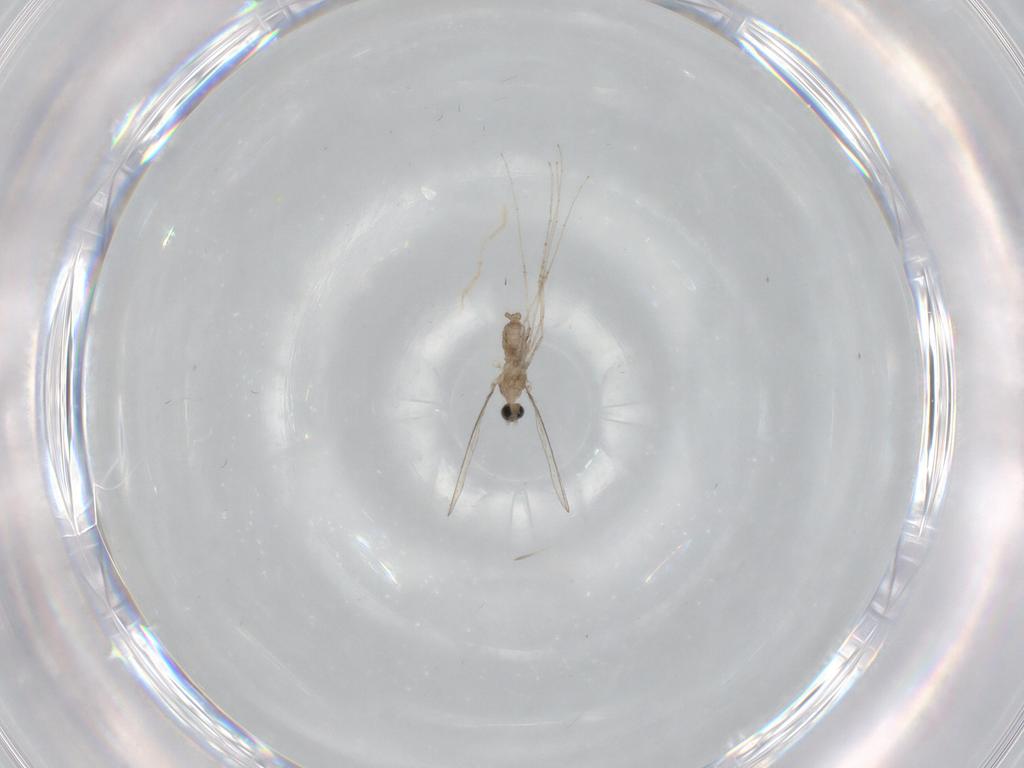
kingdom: Animalia
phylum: Arthropoda
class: Insecta
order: Diptera
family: Cecidomyiidae
